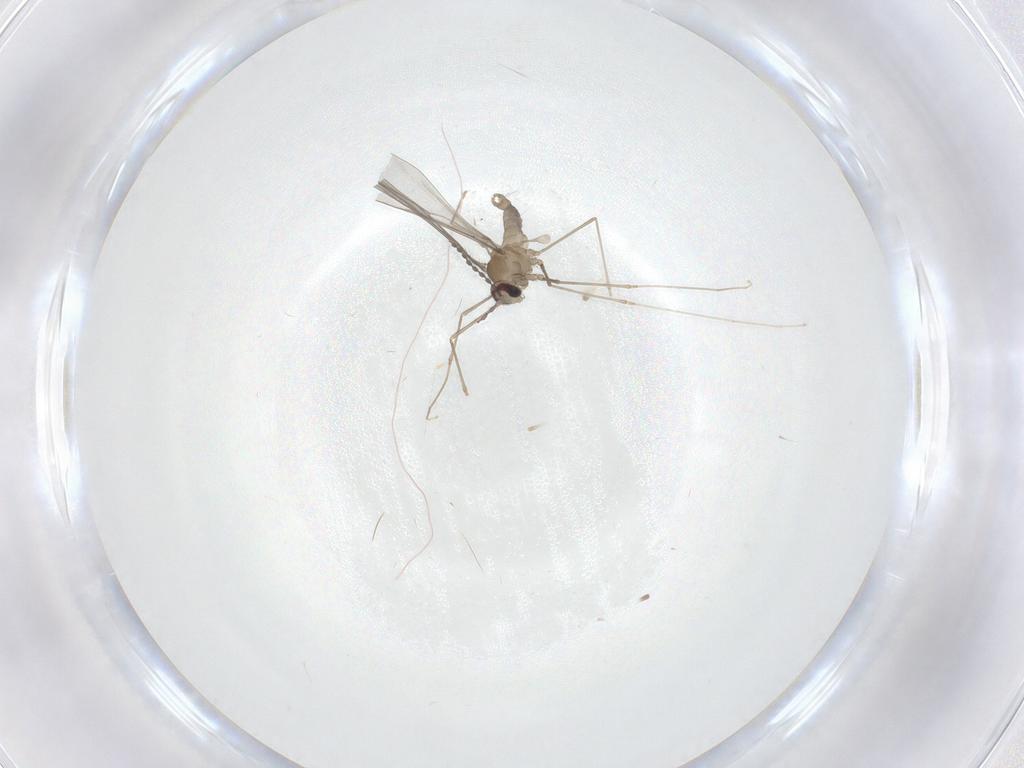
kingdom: Animalia
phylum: Arthropoda
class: Insecta
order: Diptera
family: Cecidomyiidae
